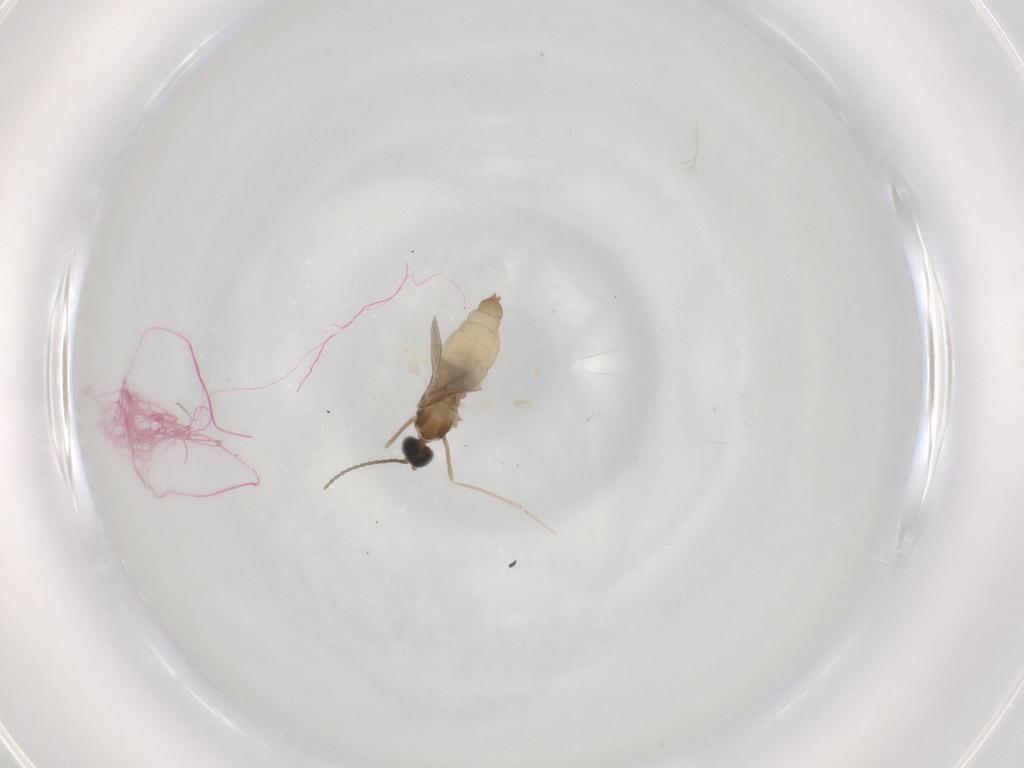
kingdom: Animalia
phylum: Arthropoda
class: Insecta
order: Diptera
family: Cecidomyiidae
